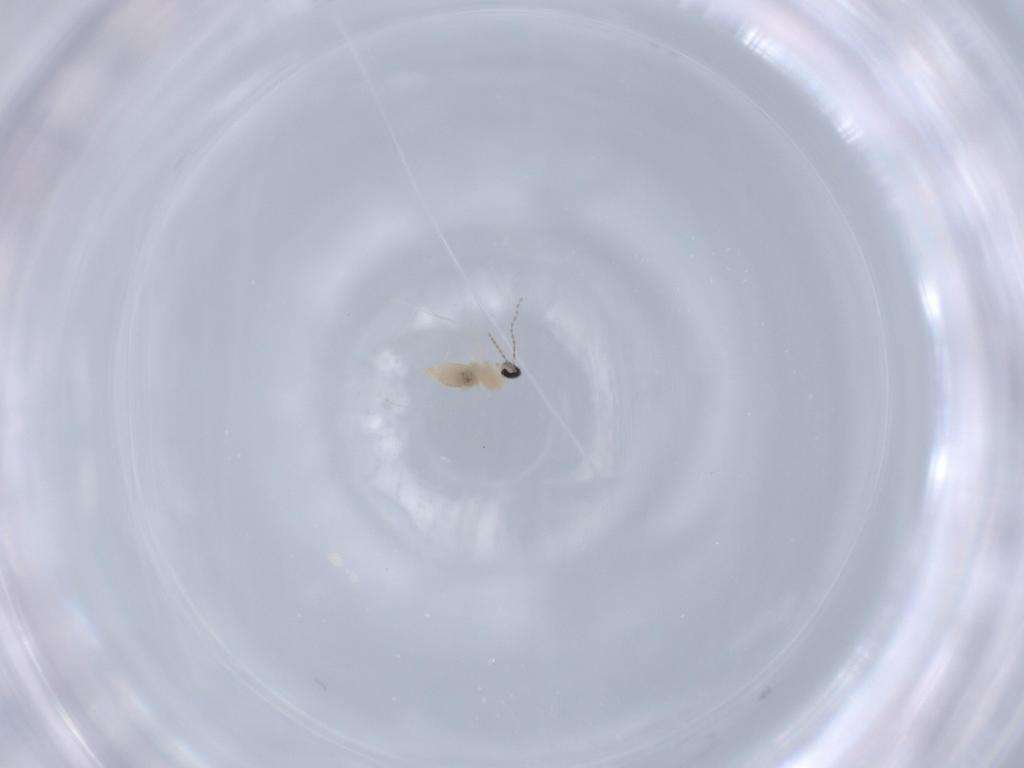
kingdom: Animalia
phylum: Arthropoda
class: Insecta
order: Diptera
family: Cecidomyiidae
